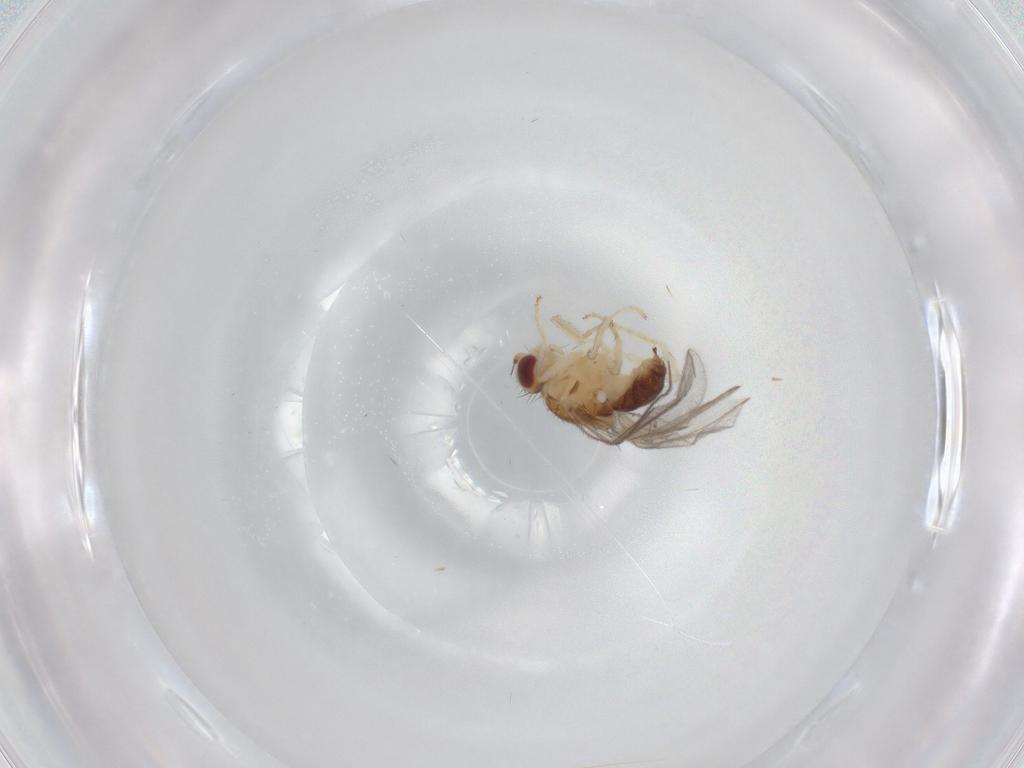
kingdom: Animalia
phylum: Arthropoda
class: Insecta
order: Diptera
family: Chloropidae
